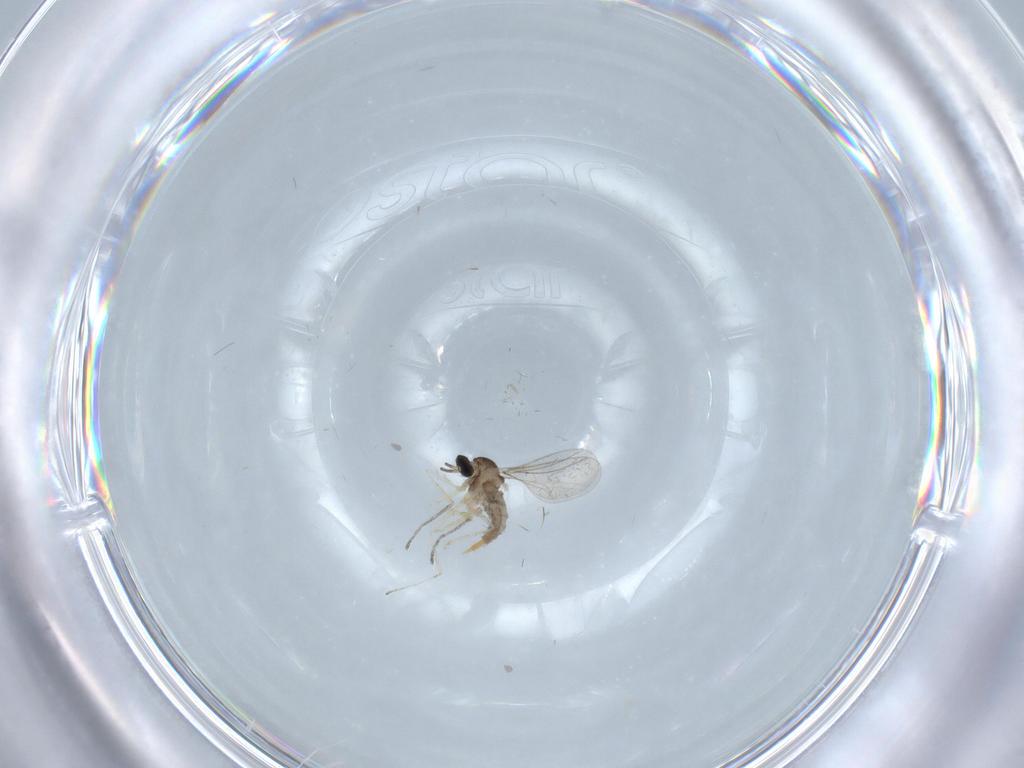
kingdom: Animalia
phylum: Arthropoda
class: Insecta
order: Diptera
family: Cecidomyiidae
